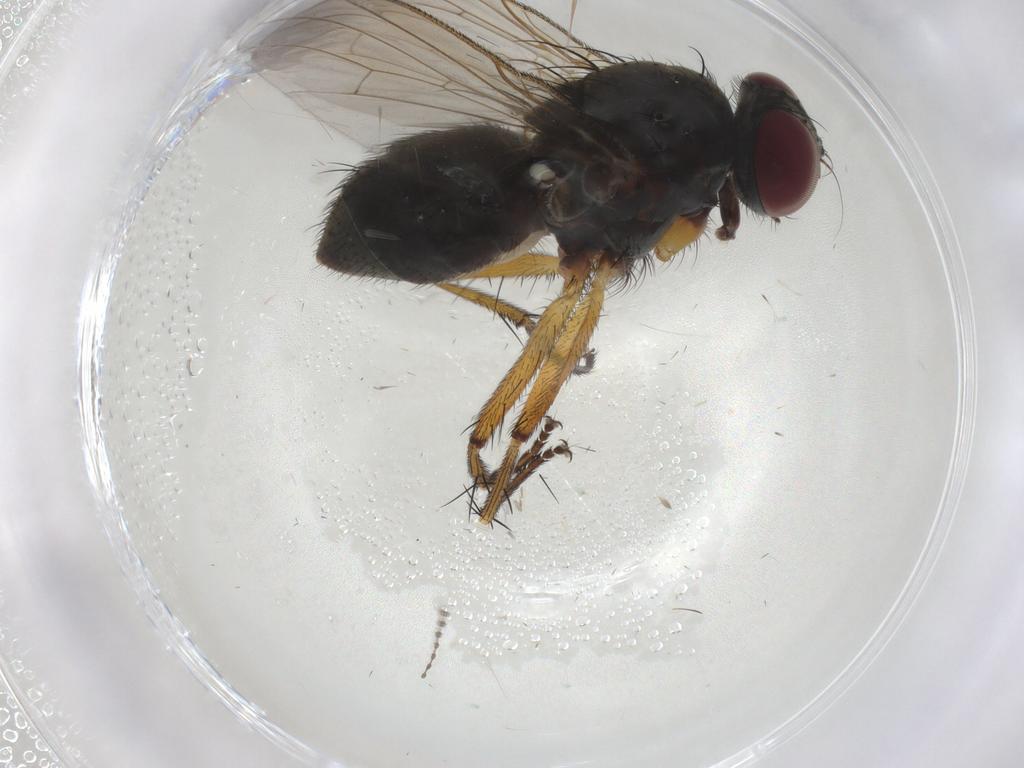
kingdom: Animalia
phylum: Arthropoda
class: Insecta
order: Diptera
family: Muscidae
